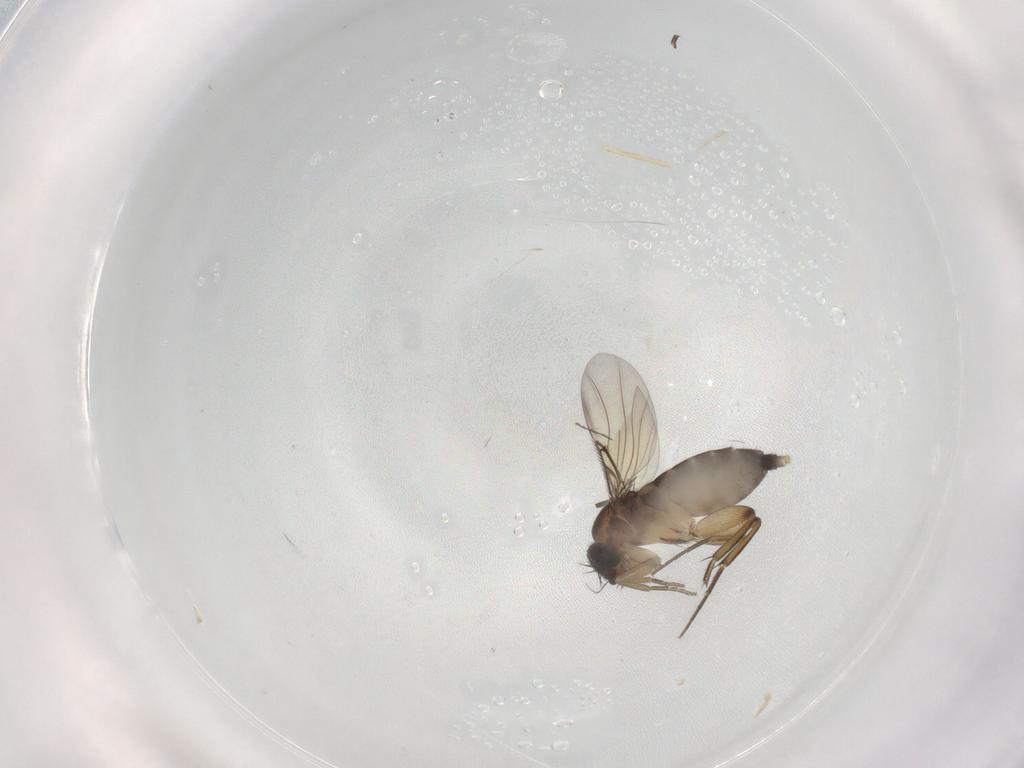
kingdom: Animalia
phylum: Arthropoda
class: Insecta
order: Diptera
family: Phoridae
